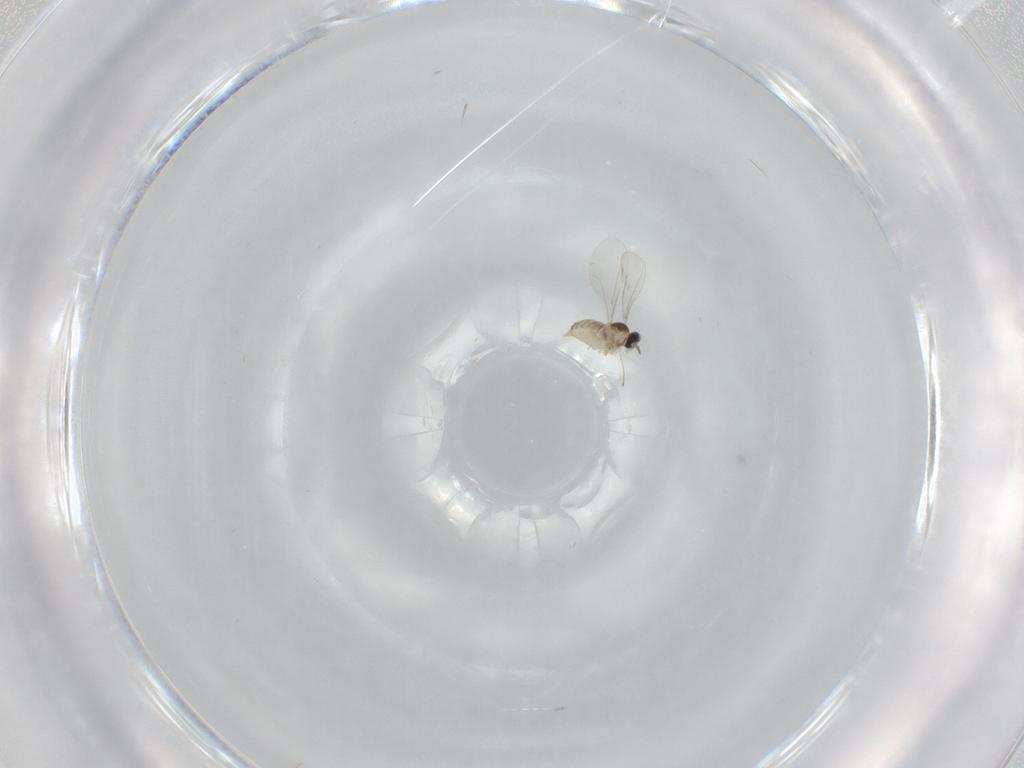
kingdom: Animalia
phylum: Arthropoda
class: Insecta
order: Diptera
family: Cecidomyiidae
